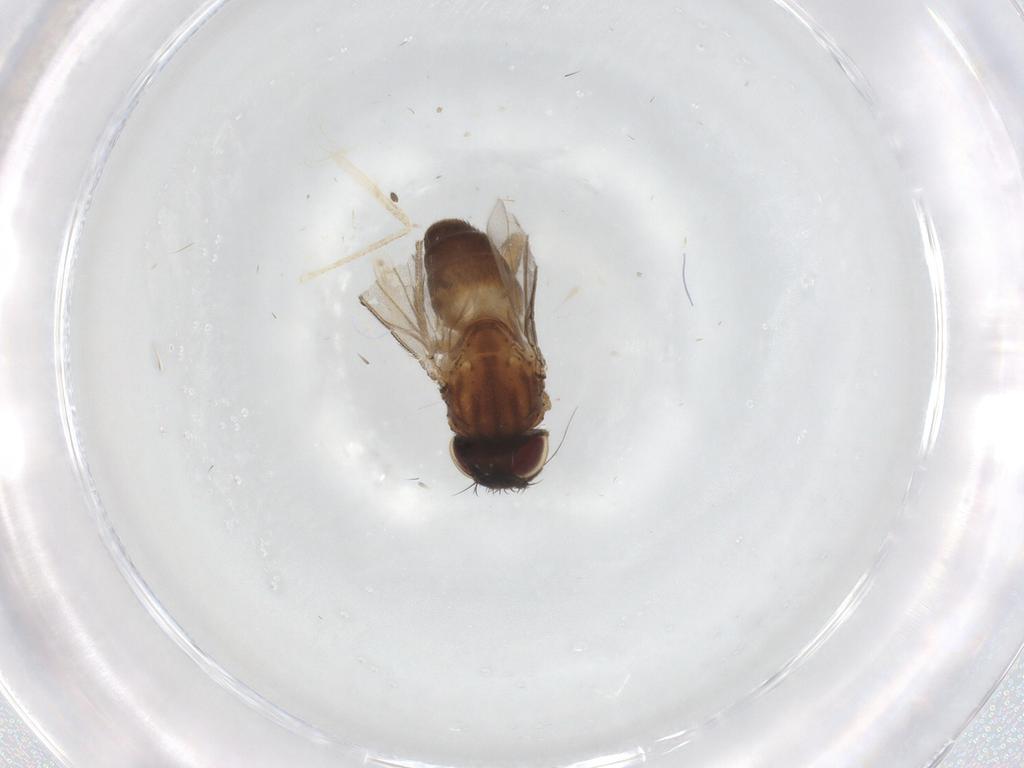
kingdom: Animalia
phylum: Arthropoda
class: Insecta
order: Diptera
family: Milichiidae
